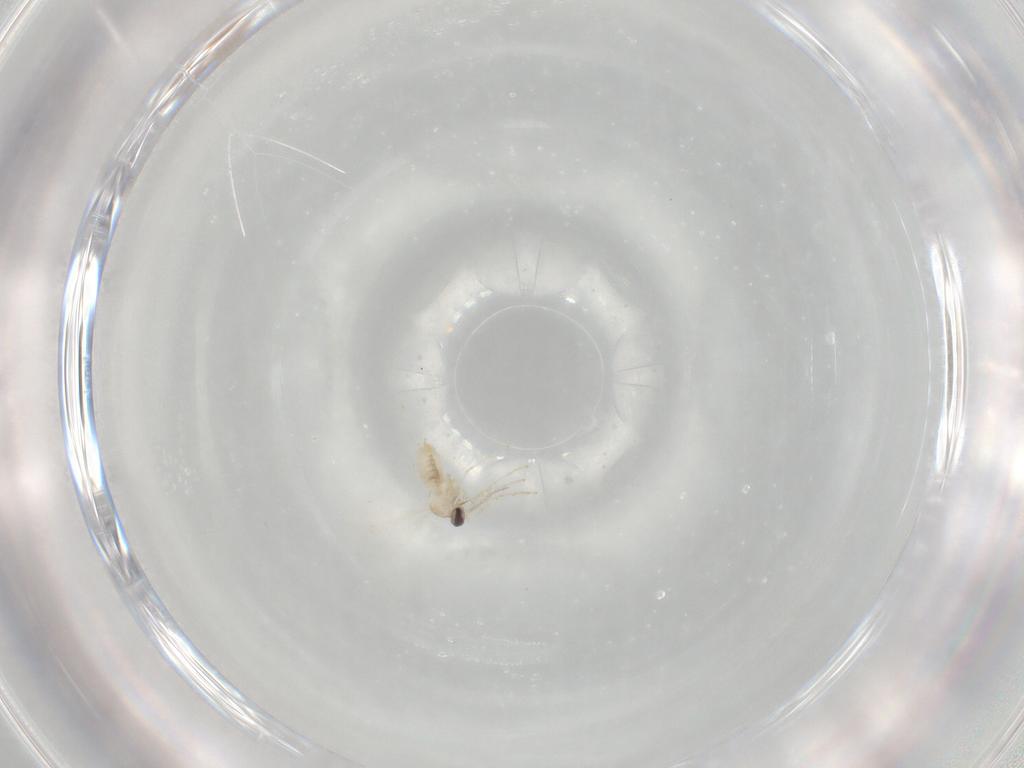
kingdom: Animalia
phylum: Arthropoda
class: Insecta
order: Diptera
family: Cecidomyiidae
